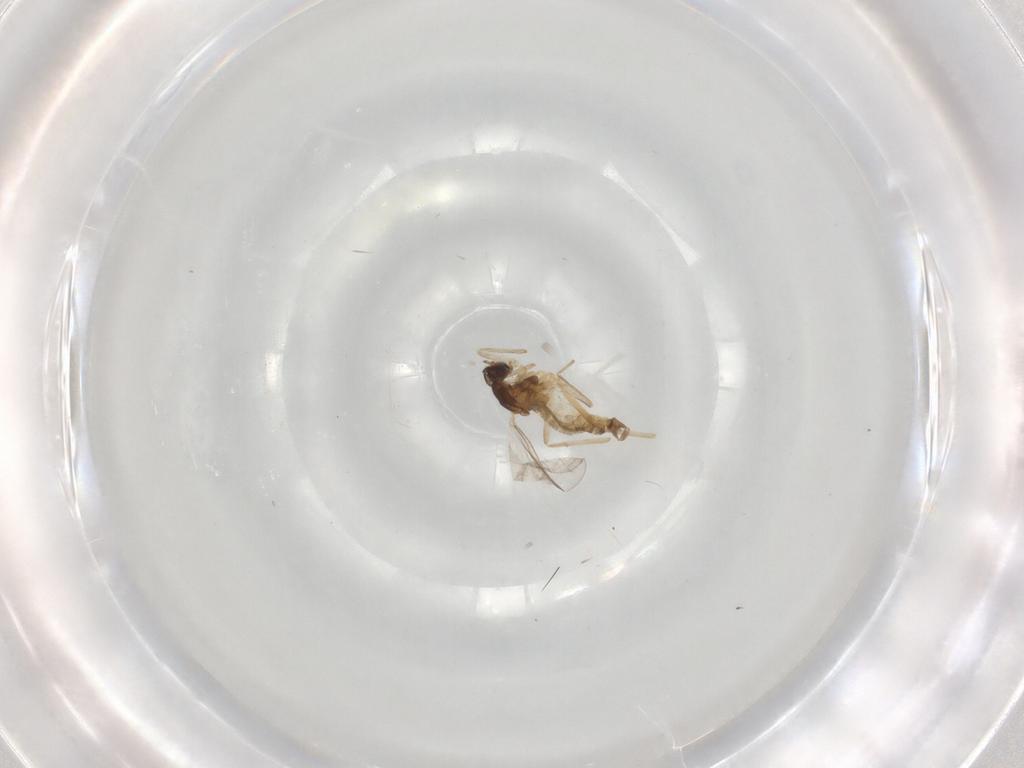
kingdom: Animalia
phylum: Arthropoda
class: Insecta
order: Diptera
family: Cecidomyiidae
